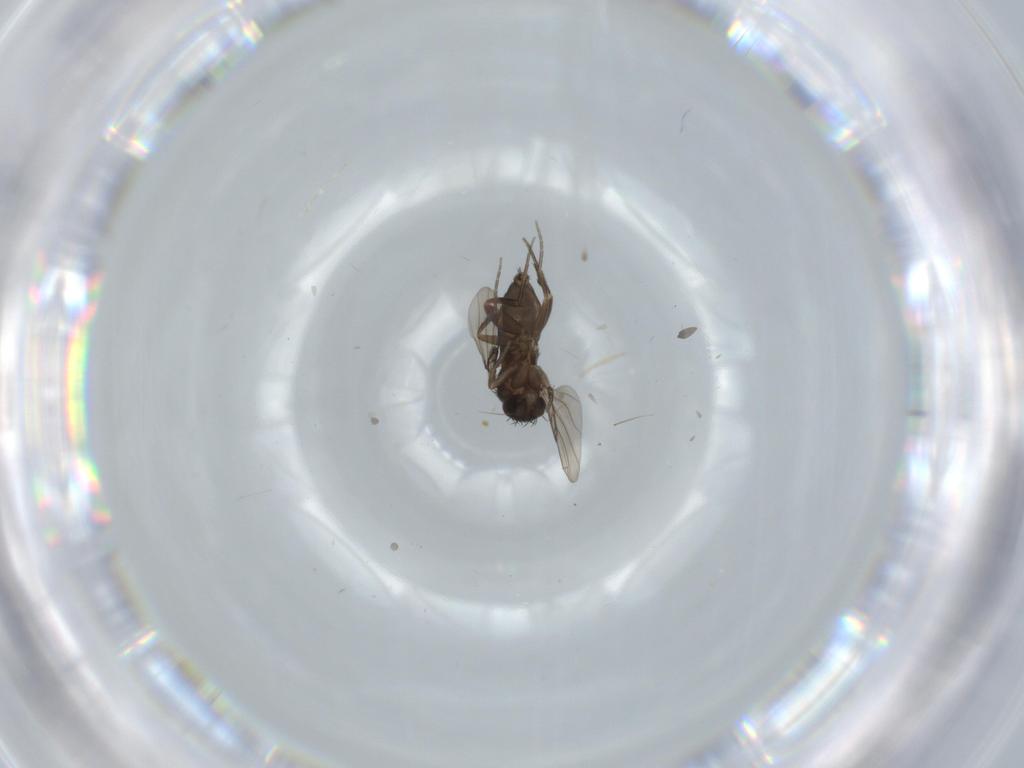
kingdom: Animalia
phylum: Arthropoda
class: Insecta
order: Diptera
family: Phoridae
